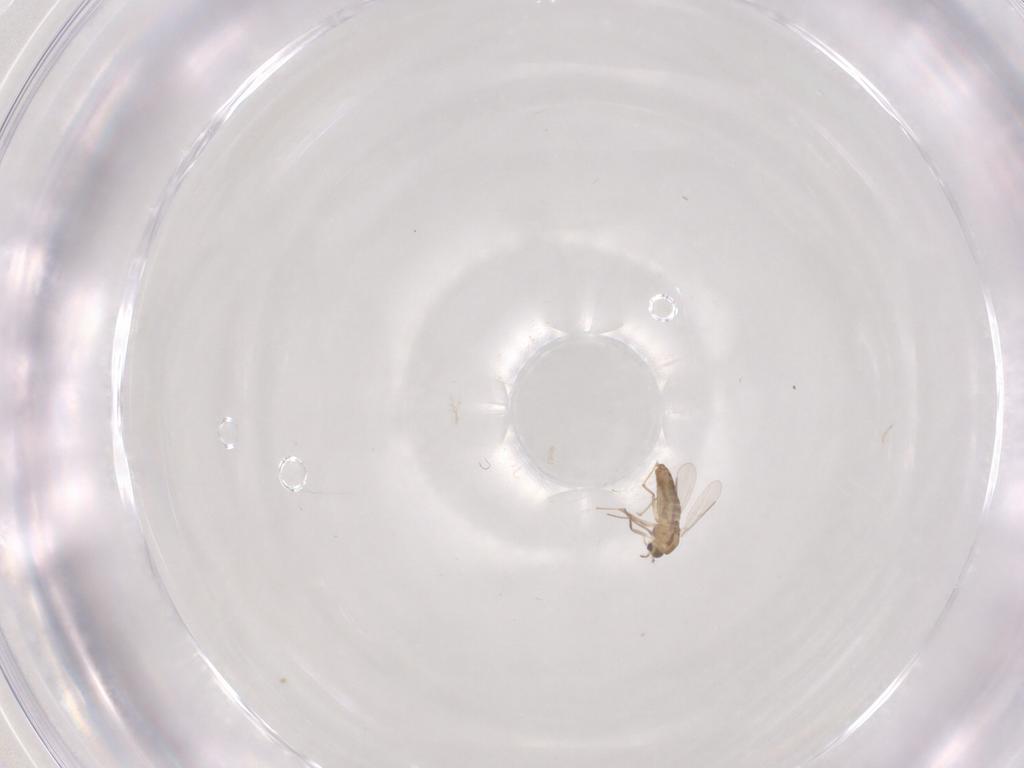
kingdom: Animalia
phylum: Arthropoda
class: Insecta
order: Diptera
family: Chironomidae
